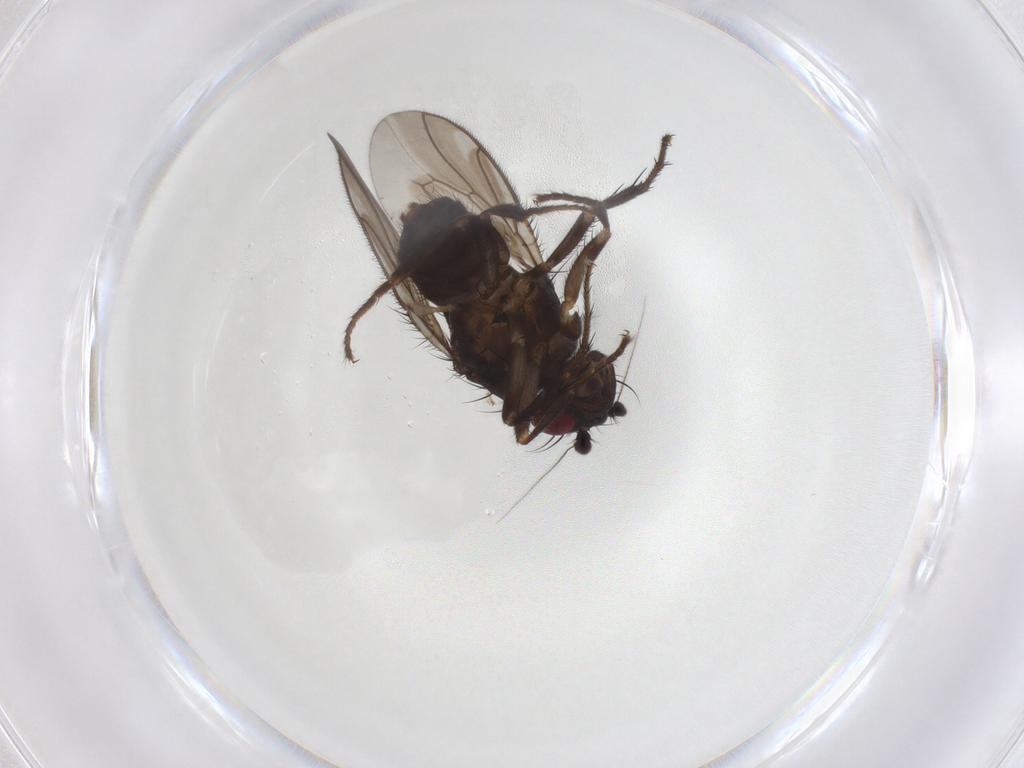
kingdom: Animalia
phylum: Arthropoda
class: Insecta
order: Diptera
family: Sphaeroceridae
